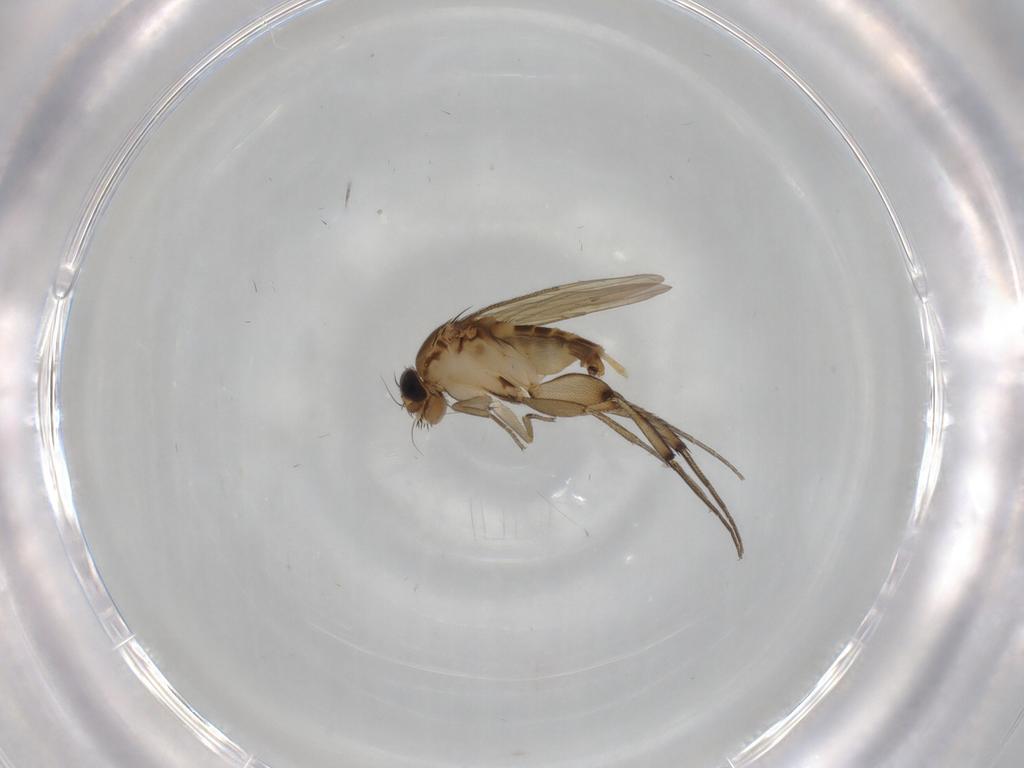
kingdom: Animalia
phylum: Arthropoda
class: Insecta
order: Diptera
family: Phoridae
